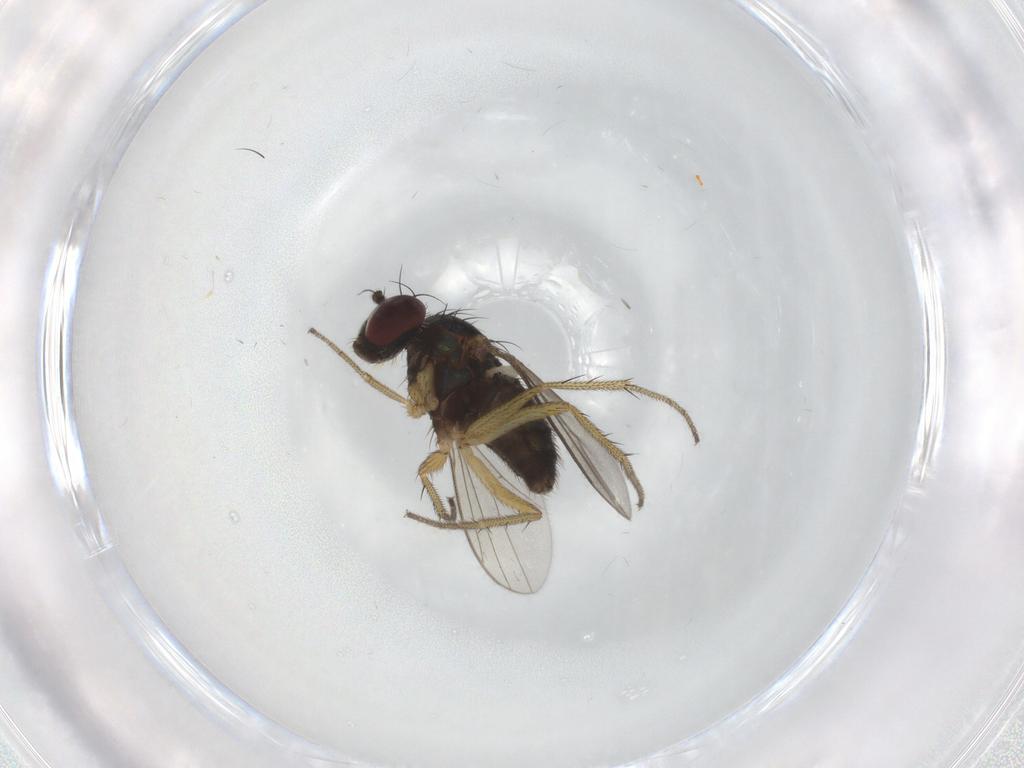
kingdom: Animalia
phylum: Arthropoda
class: Insecta
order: Diptera
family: Dolichopodidae
